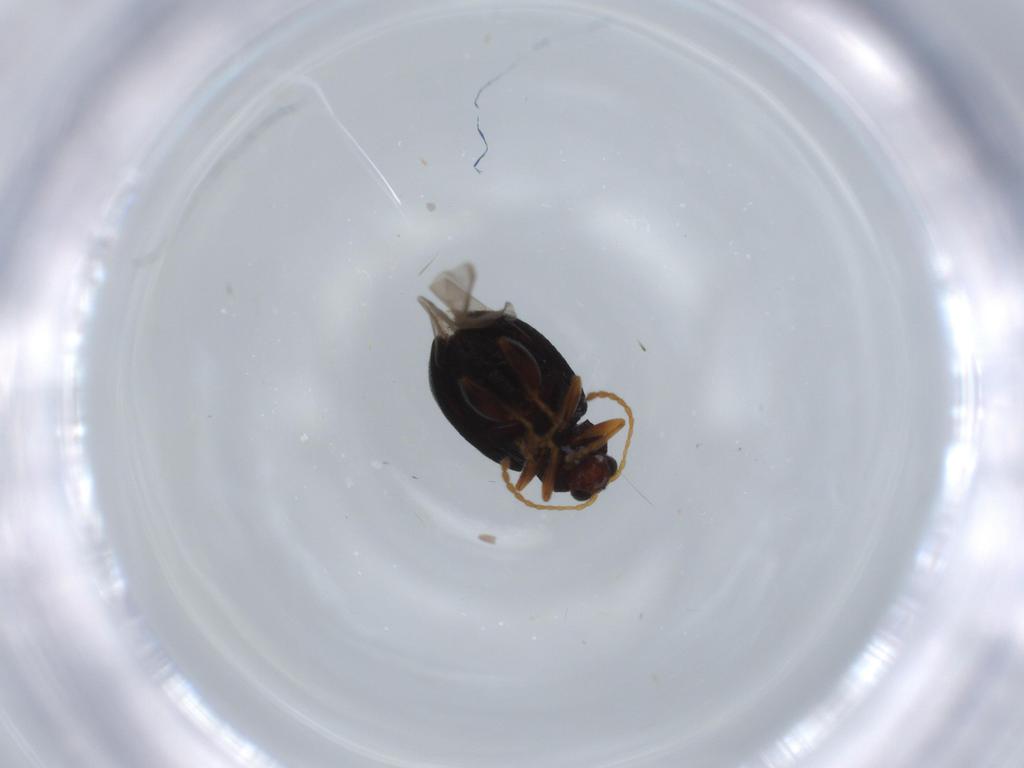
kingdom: Animalia
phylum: Arthropoda
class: Insecta
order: Coleoptera
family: Chrysomelidae
